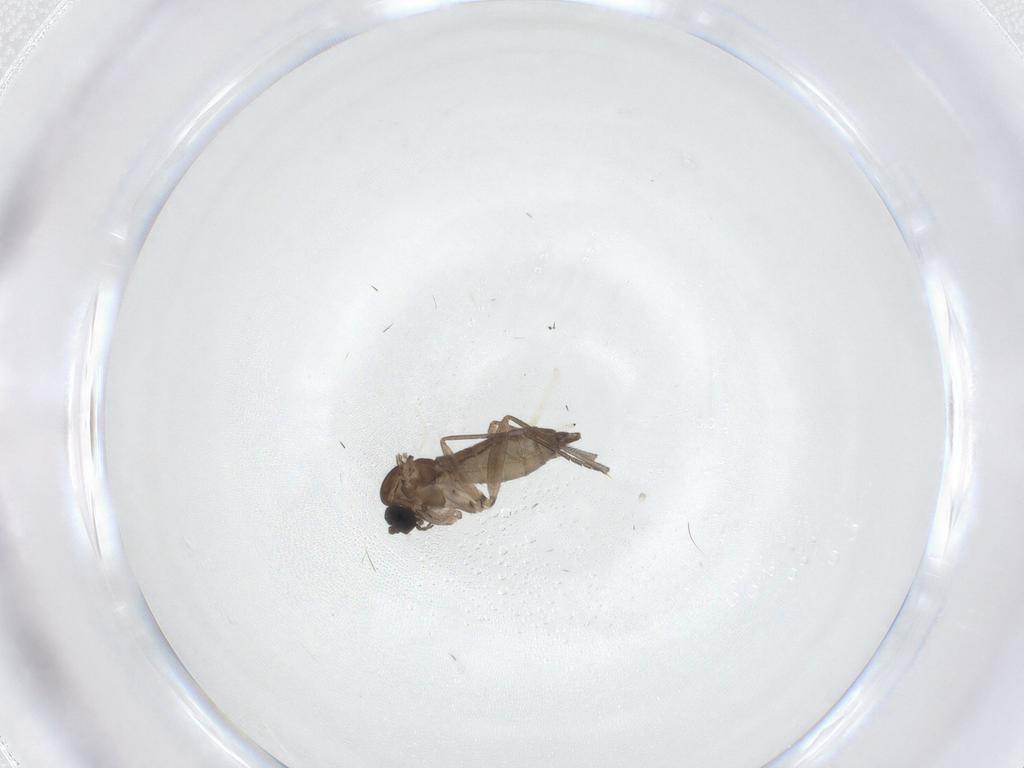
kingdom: Animalia
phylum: Arthropoda
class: Insecta
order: Diptera
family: Sciaridae
